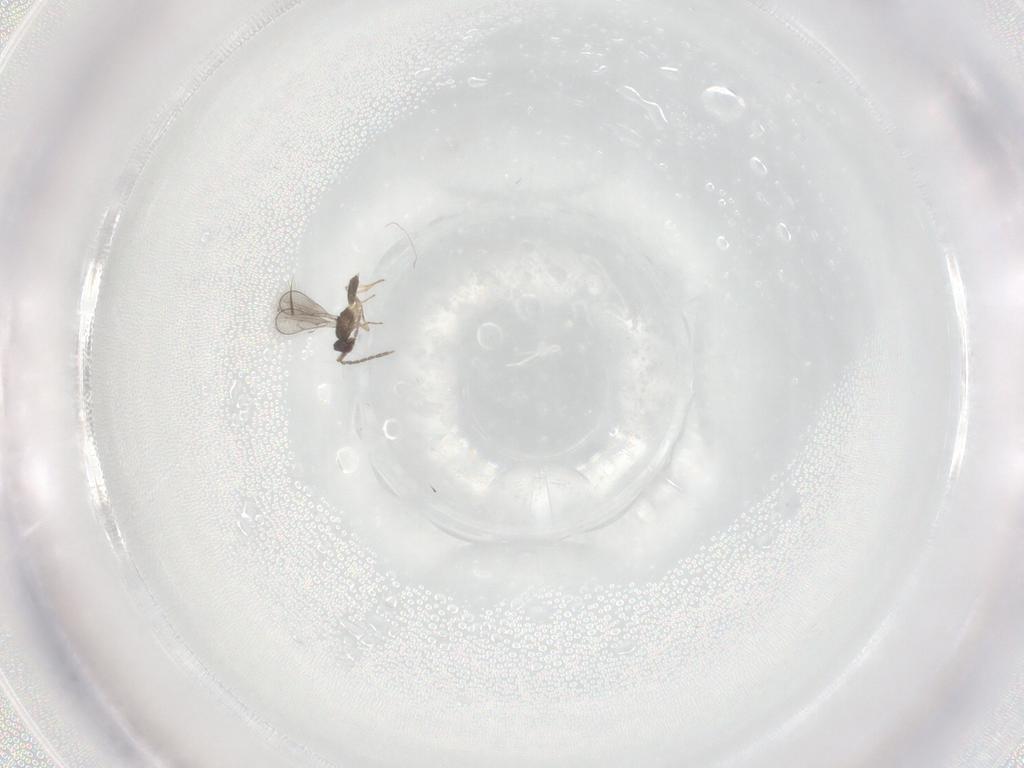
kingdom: Animalia
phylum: Arthropoda
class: Insecta
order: Hymenoptera
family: Eulophidae
